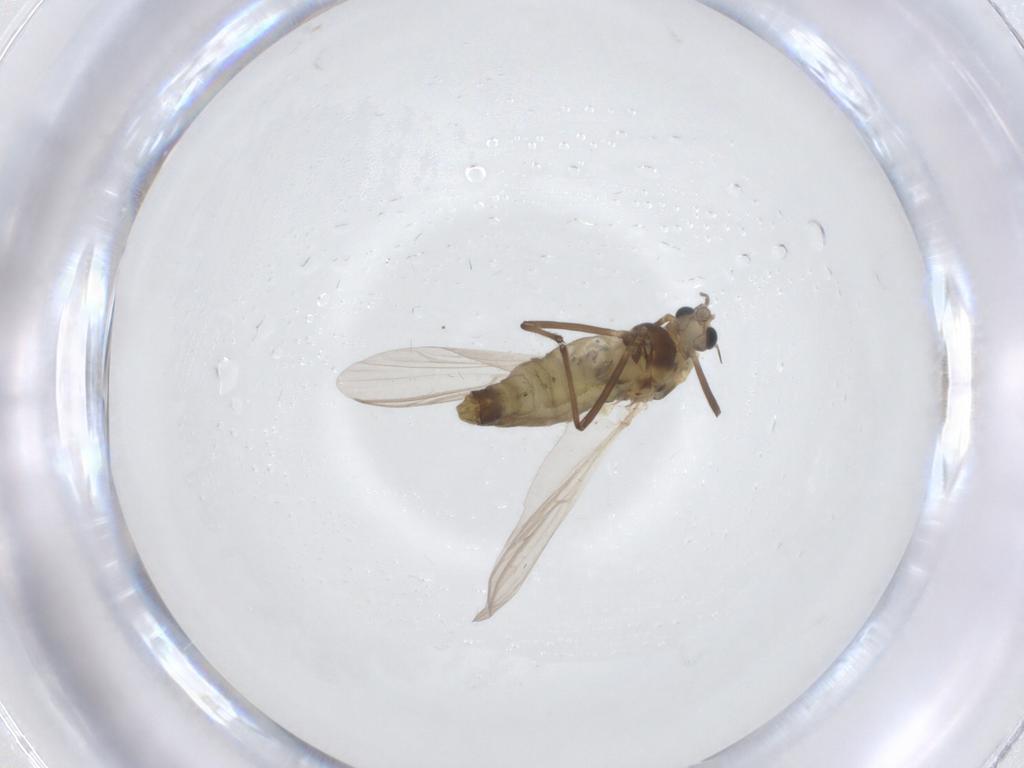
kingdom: Animalia
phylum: Arthropoda
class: Insecta
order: Diptera
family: Chironomidae
